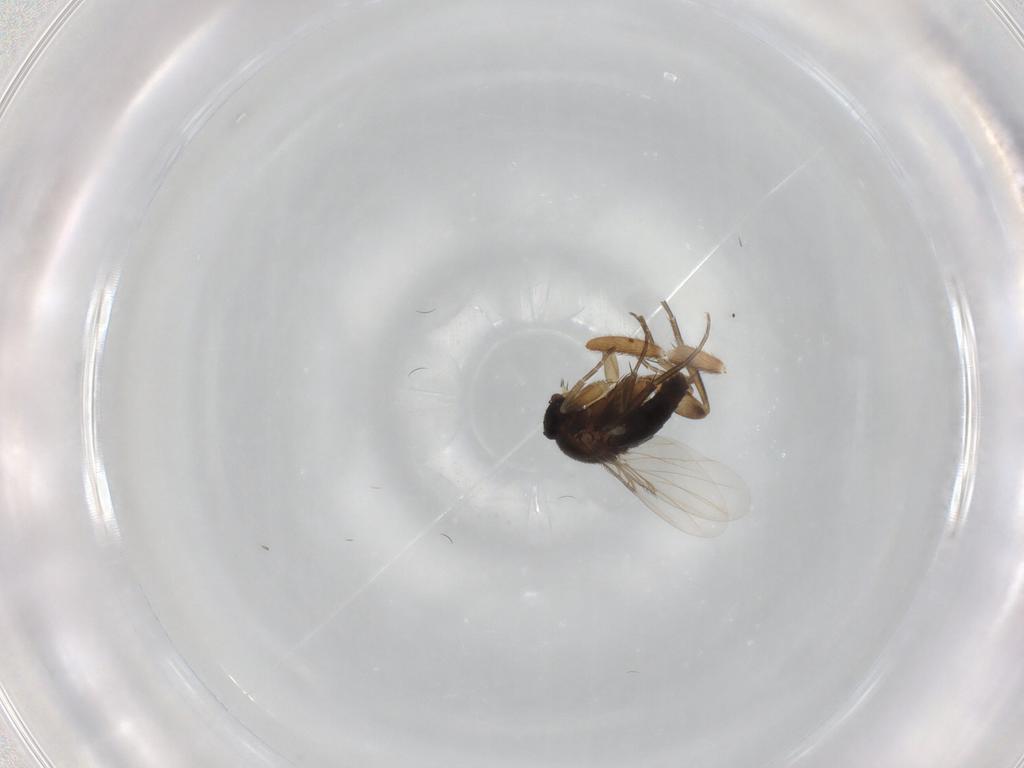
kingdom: Animalia
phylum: Arthropoda
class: Insecta
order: Diptera
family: Phoridae
